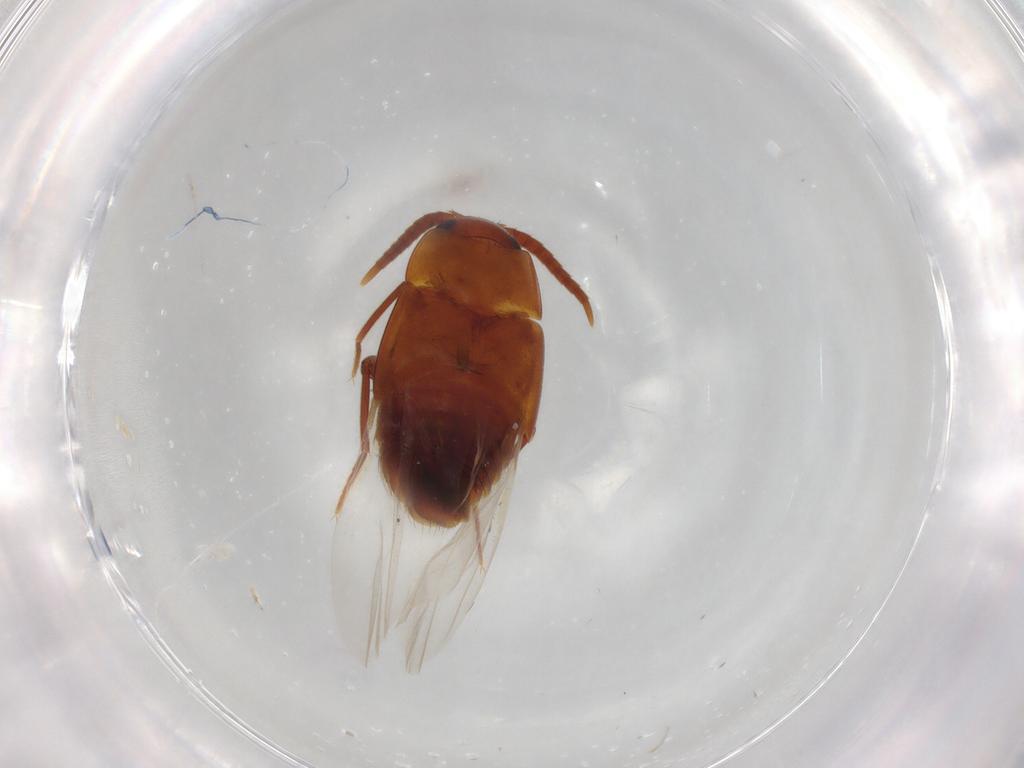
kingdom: Animalia
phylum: Arthropoda
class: Insecta
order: Coleoptera
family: Staphylinidae
